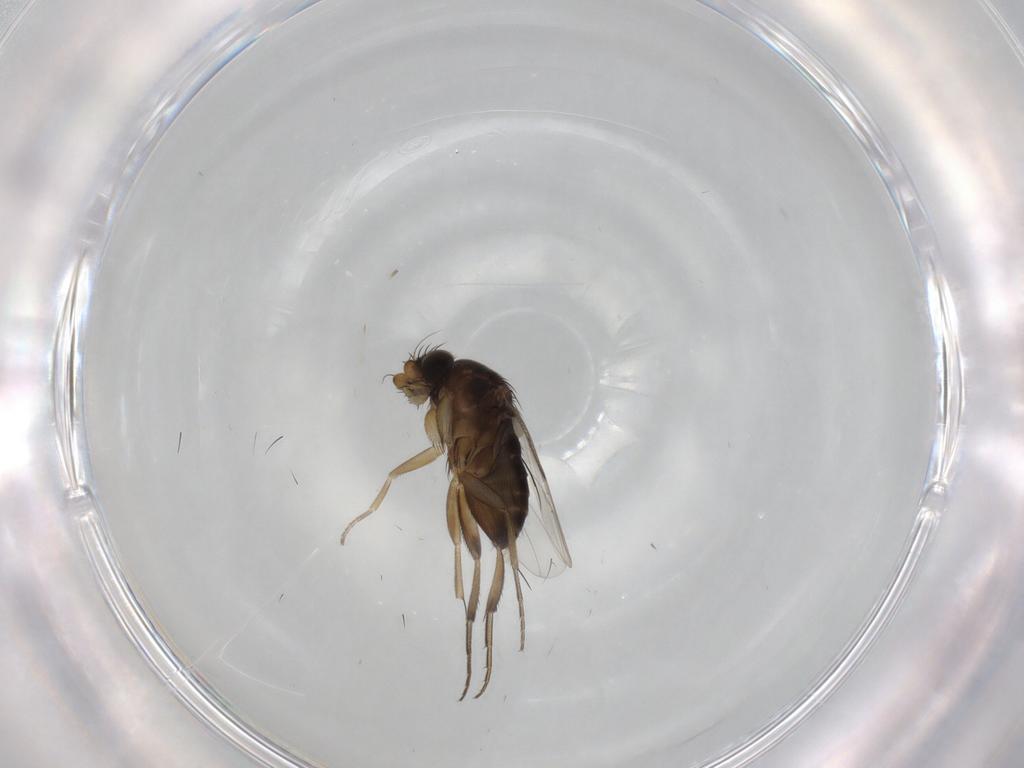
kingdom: Animalia
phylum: Arthropoda
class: Insecta
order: Diptera
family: Phoridae
